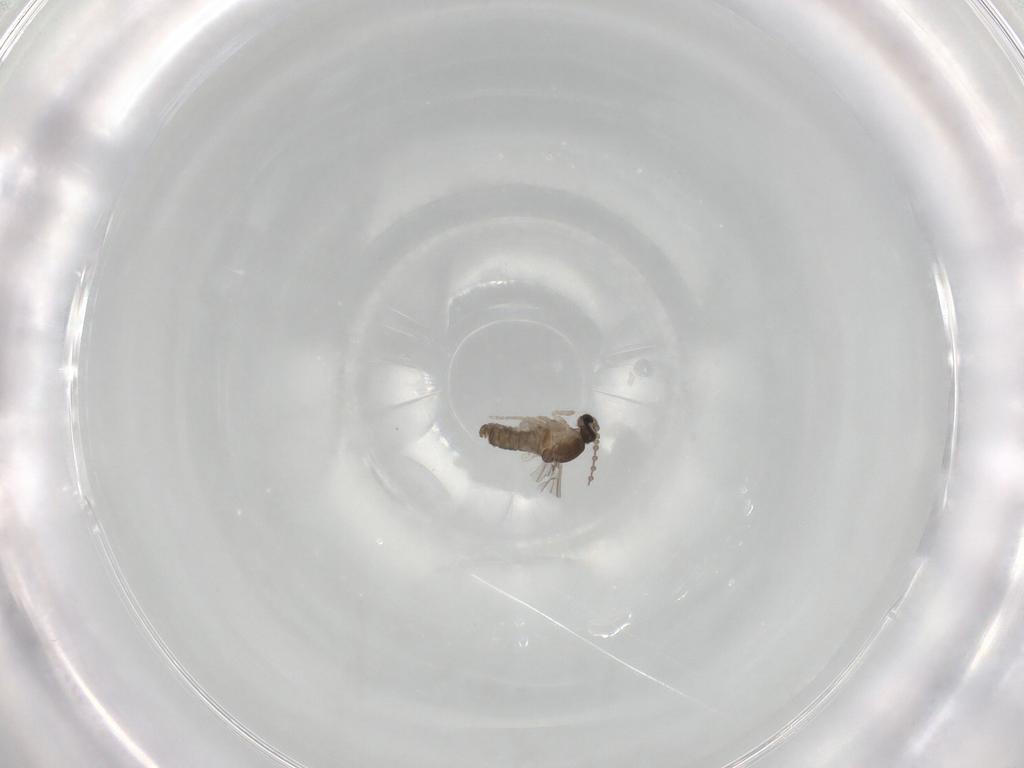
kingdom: Animalia
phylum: Arthropoda
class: Insecta
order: Diptera
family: Cecidomyiidae
